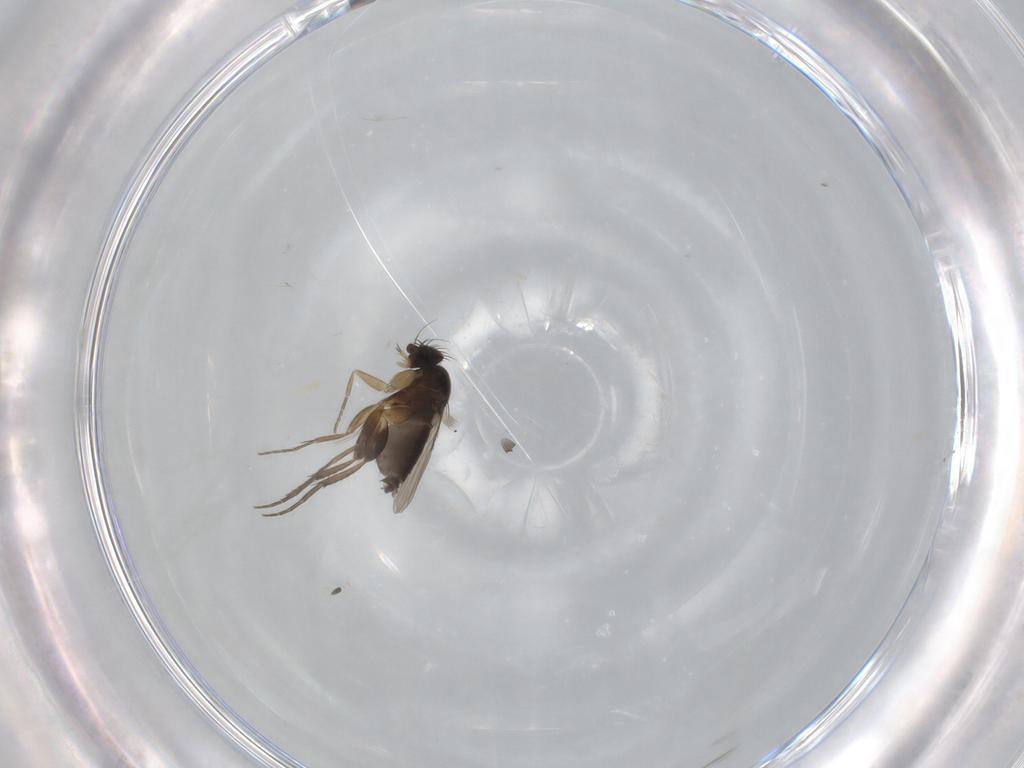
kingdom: Animalia
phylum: Arthropoda
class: Insecta
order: Diptera
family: Phoridae
